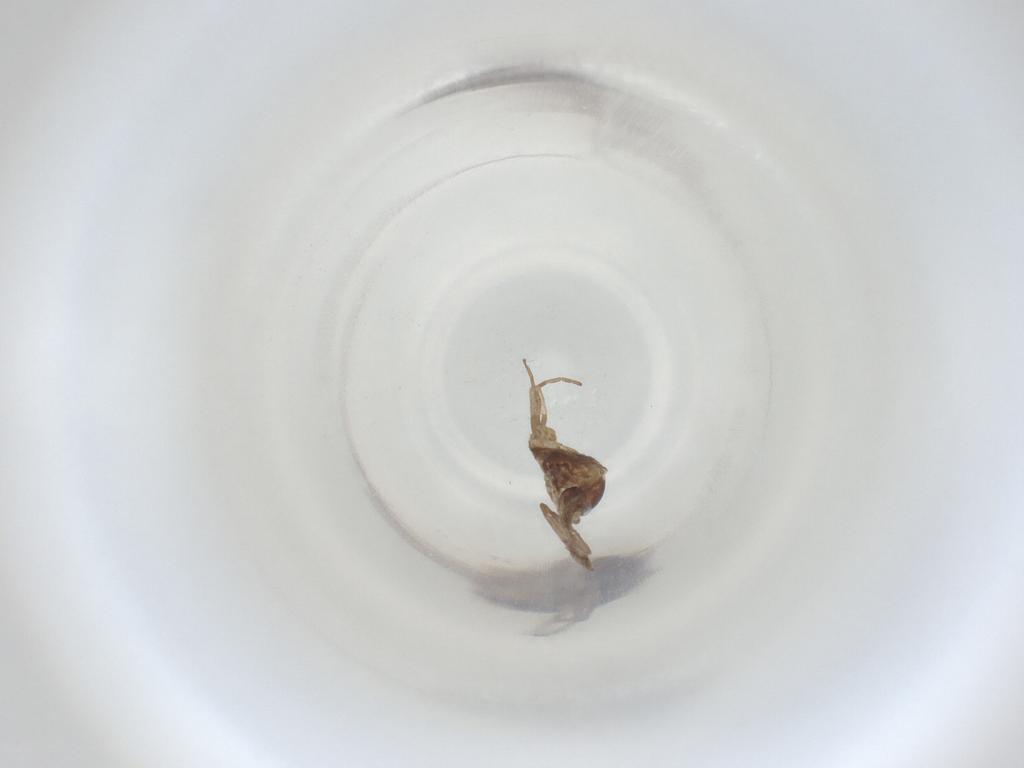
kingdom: Animalia
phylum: Arthropoda
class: Insecta
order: Diptera
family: Cecidomyiidae
